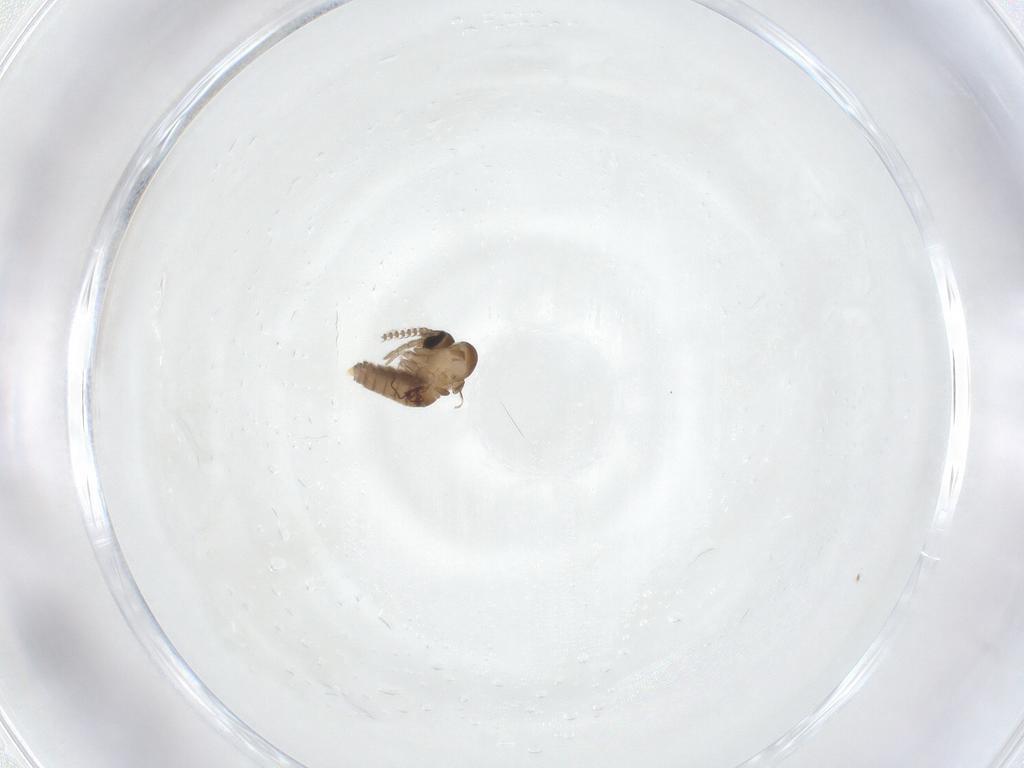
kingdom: Animalia
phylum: Arthropoda
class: Insecta
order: Diptera
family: Psychodidae
